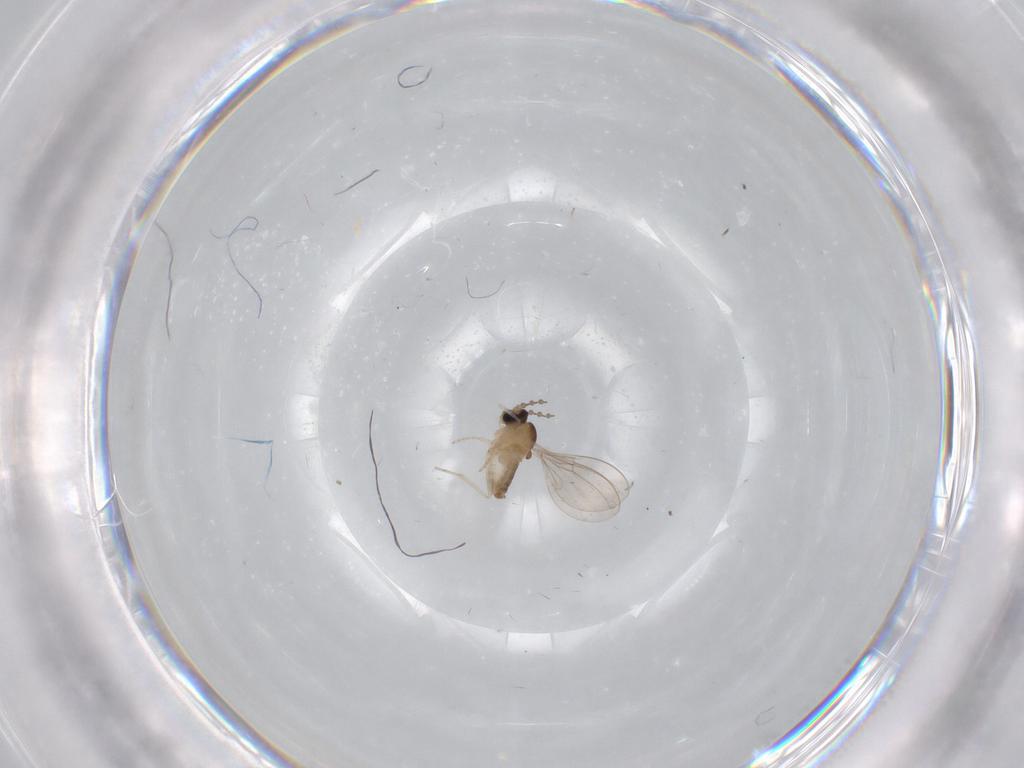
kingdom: Animalia
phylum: Arthropoda
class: Insecta
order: Diptera
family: Cecidomyiidae
